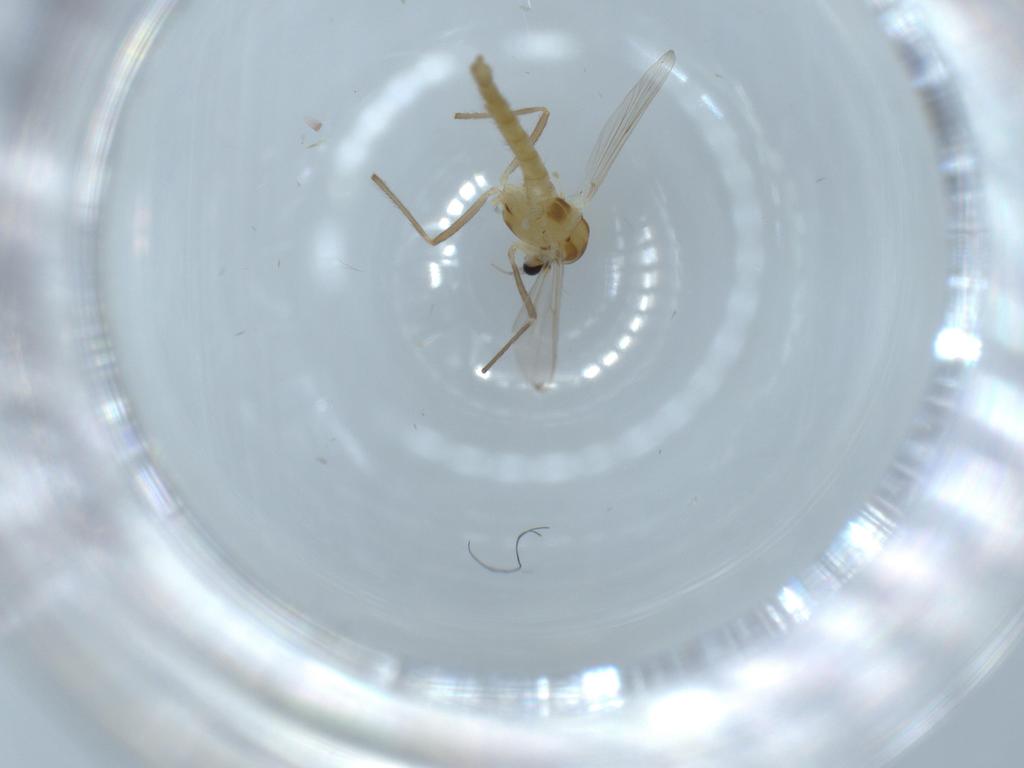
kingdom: Animalia
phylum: Arthropoda
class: Insecta
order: Diptera
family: Chironomidae
